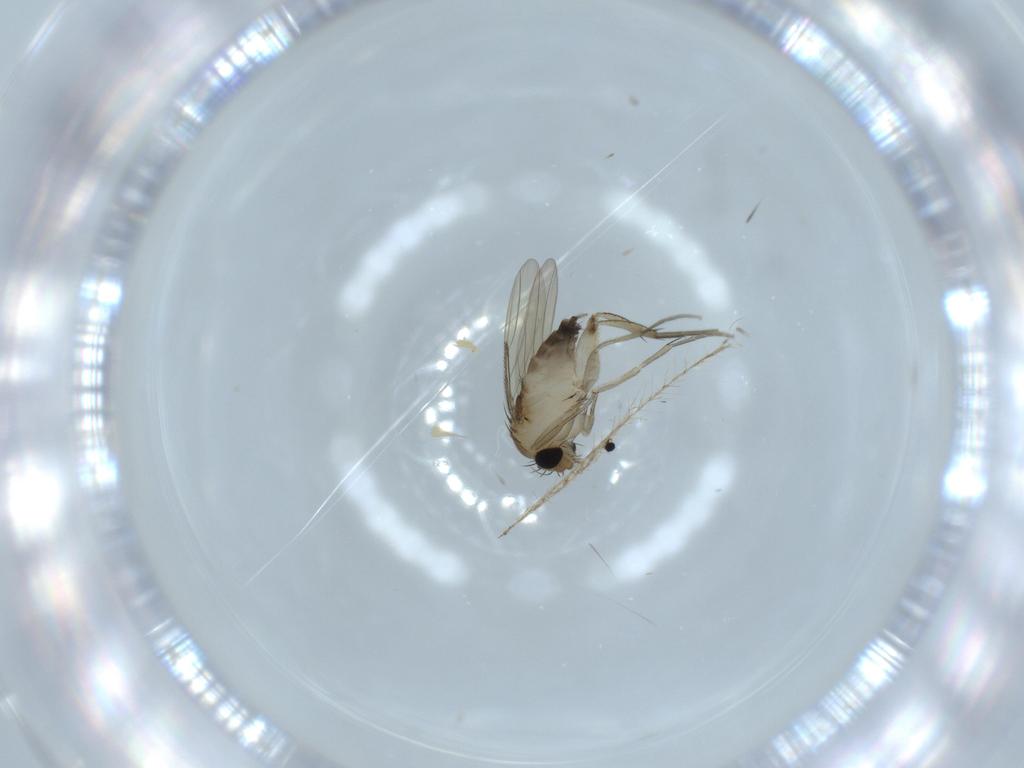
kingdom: Animalia
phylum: Arthropoda
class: Insecta
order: Diptera
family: Phoridae
